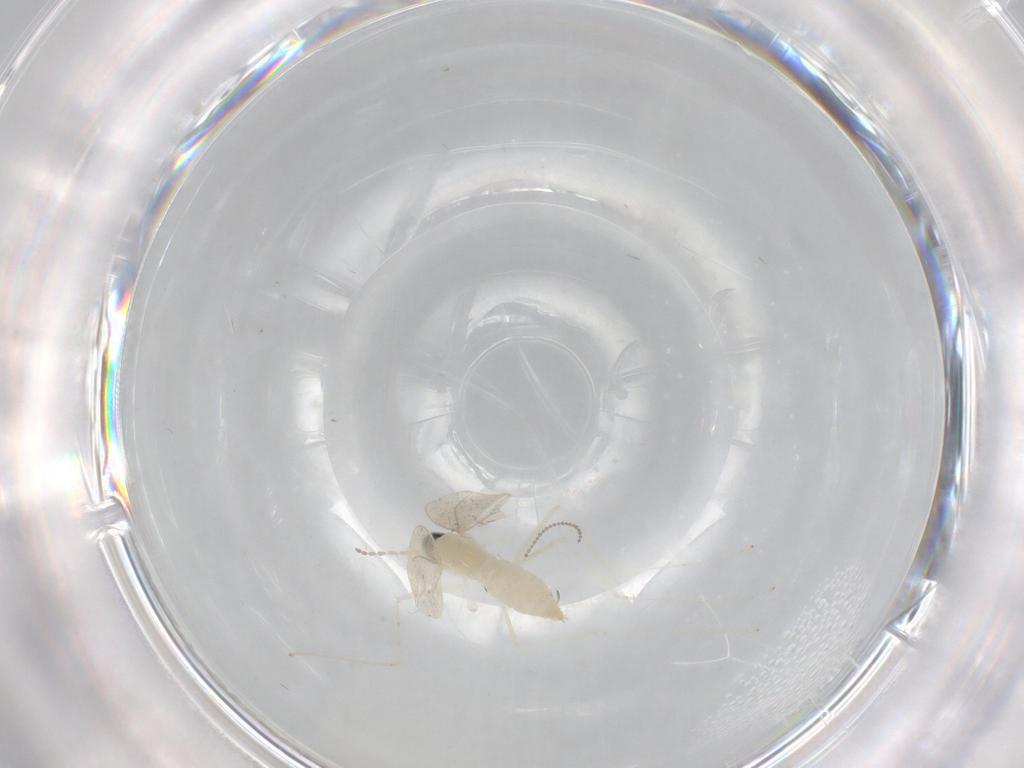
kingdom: Animalia
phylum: Arthropoda
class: Insecta
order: Diptera
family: Cecidomyiidae
